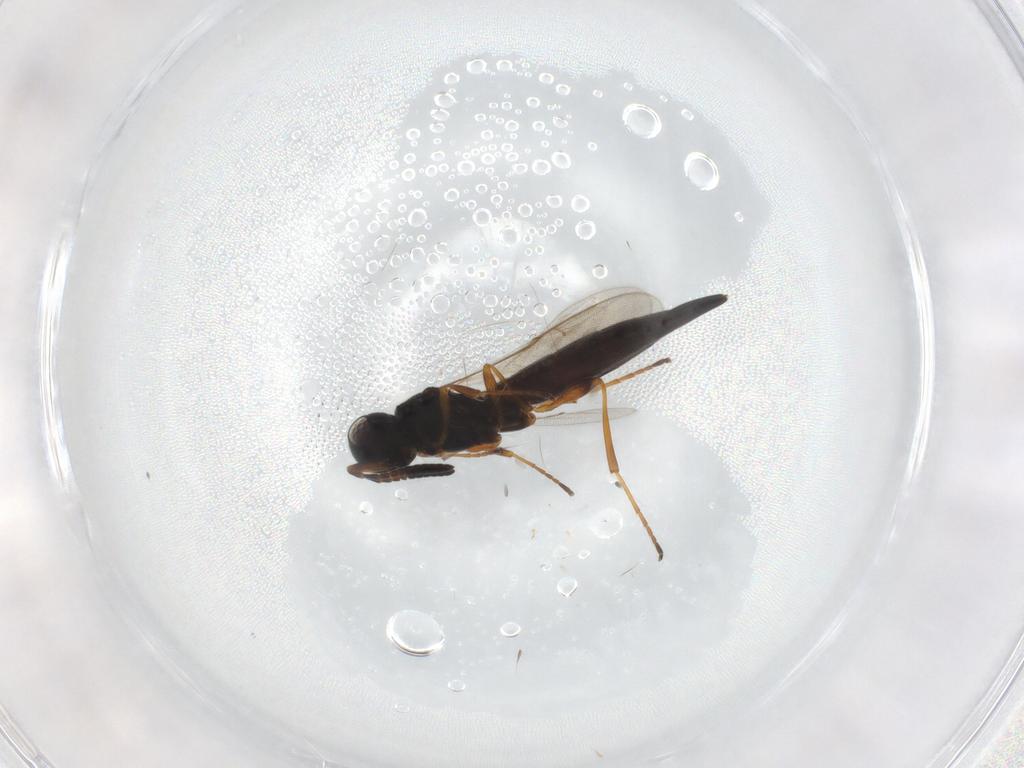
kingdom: Animalia
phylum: Arthropoda
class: Insecta
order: Hymenoptera
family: Scelionidae
